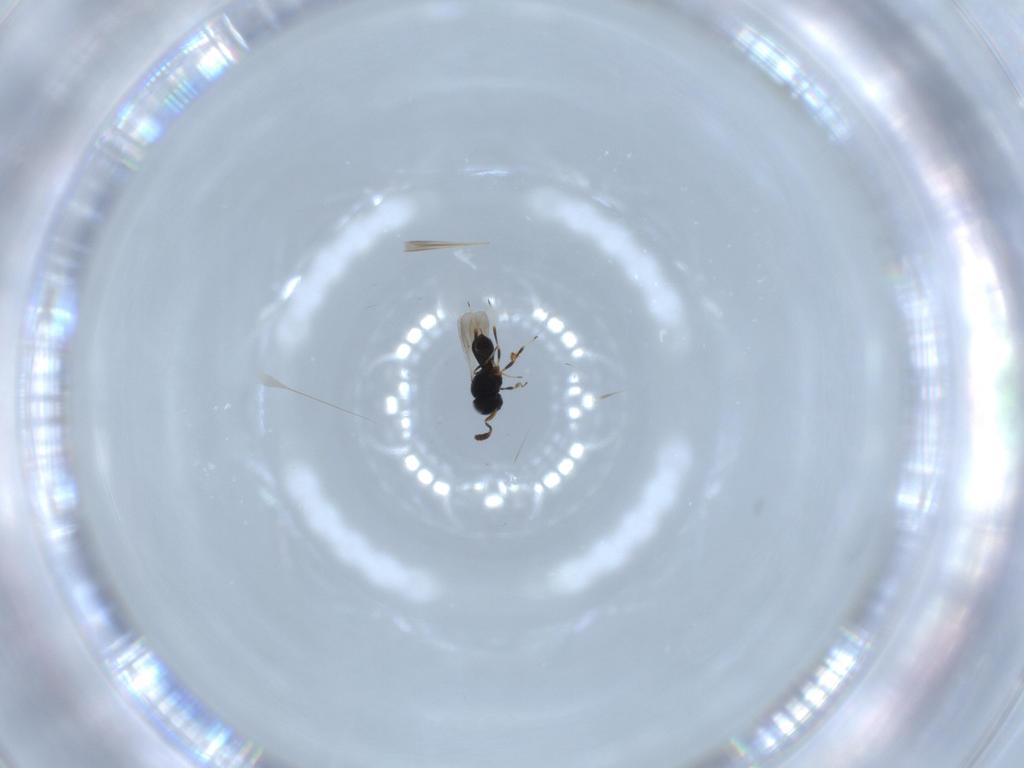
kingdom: Animalia
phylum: Arthropoda
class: Insecta
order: Hymenoptera
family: Scelionidae
